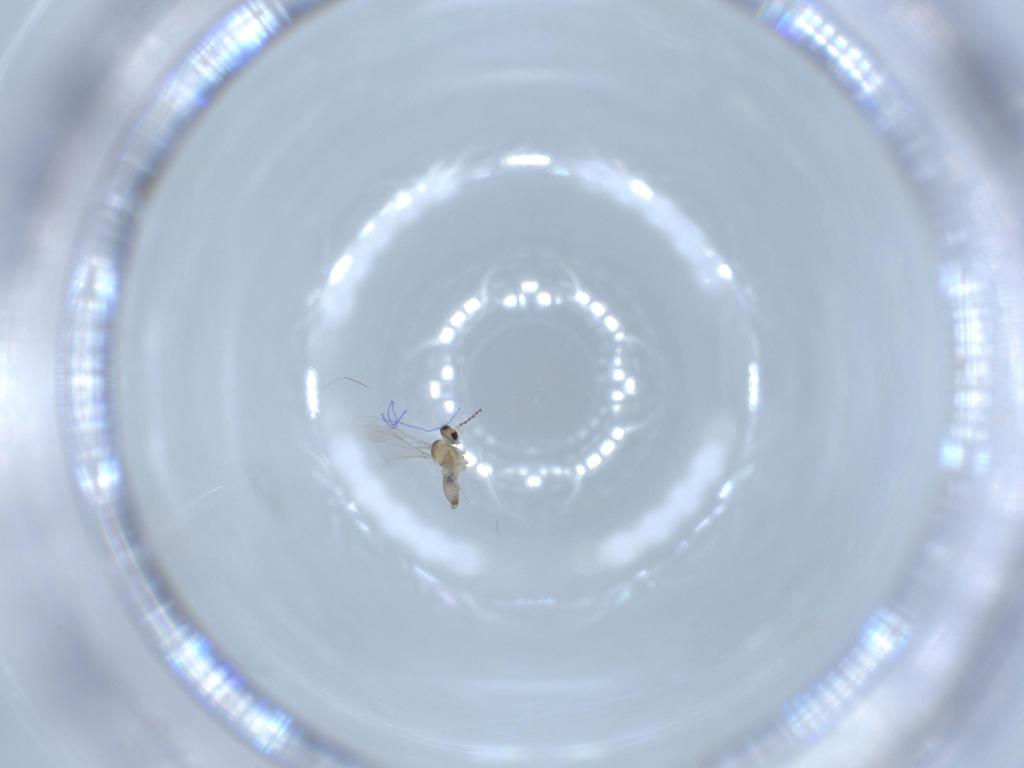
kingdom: Animalia
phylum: Arthropoda
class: Insecta
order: Diptera
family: Cecidomyiidae
